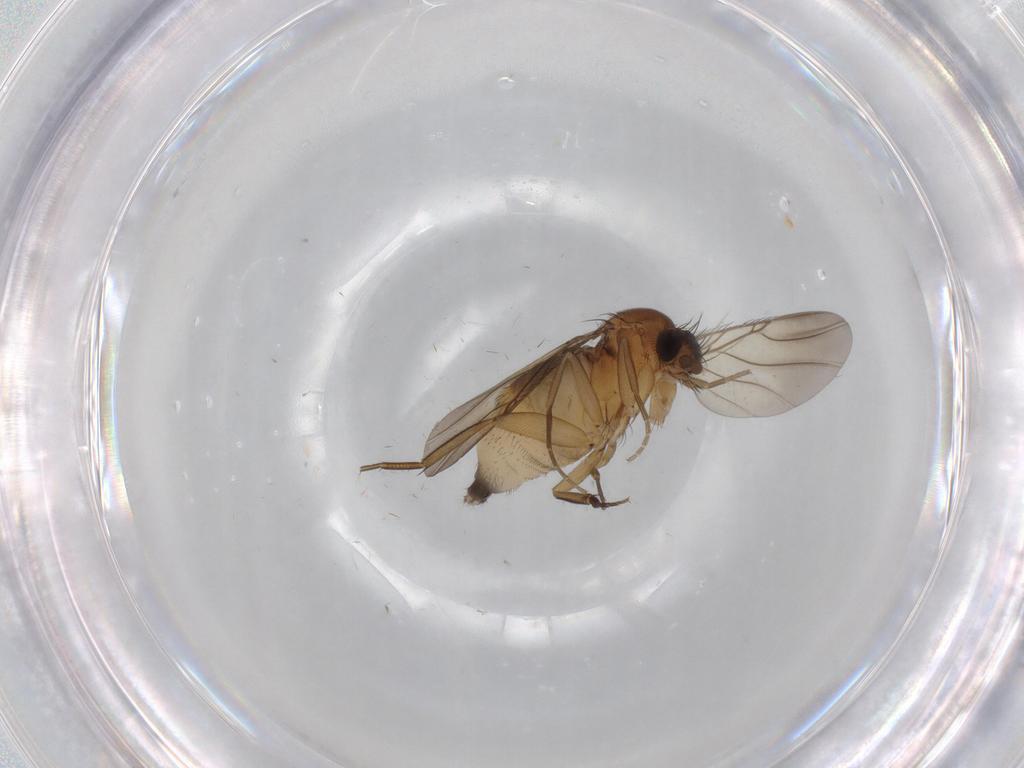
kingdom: Animalia
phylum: Arthropoda
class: Insecta
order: Diptera
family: Phoridae
